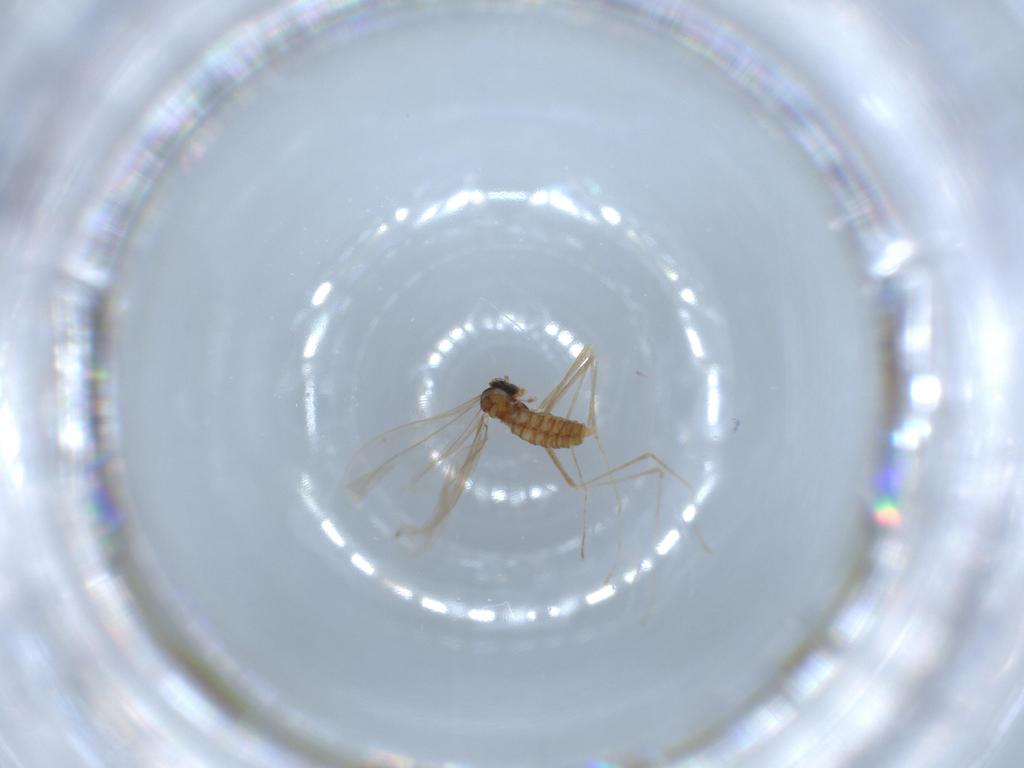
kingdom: Animalia
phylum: Arthropoda
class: Insecta
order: Diptera
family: Cecidomyiidae
